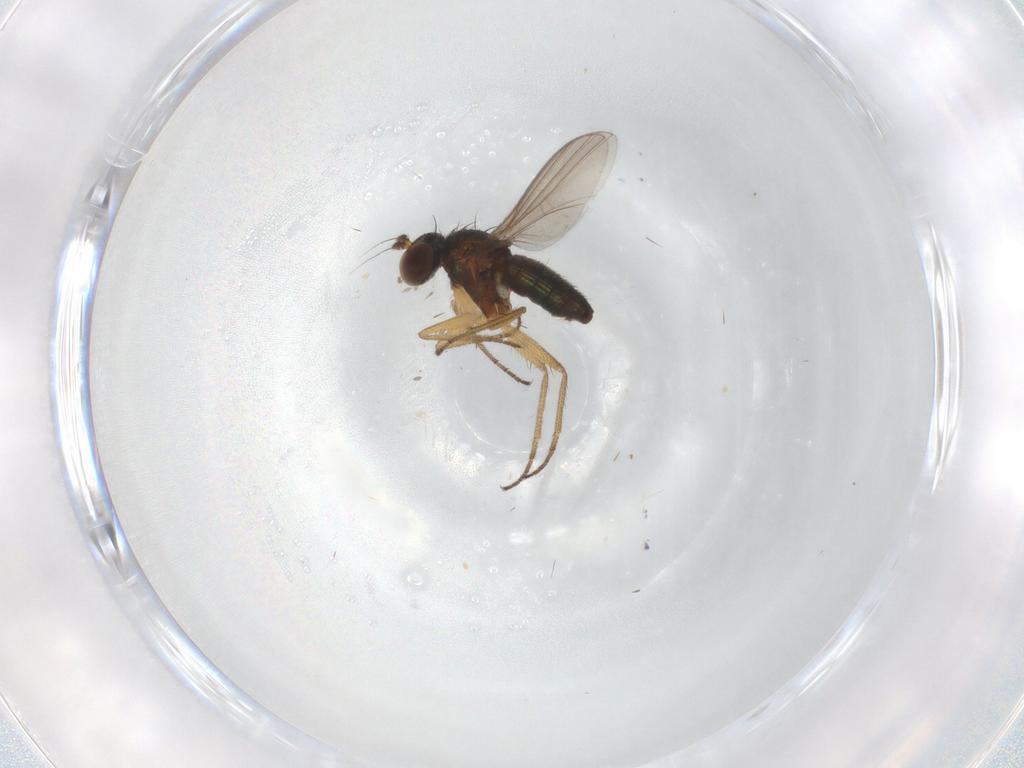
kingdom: Animalia
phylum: Arthropoda
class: Insecta
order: Diptera
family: Ceratopogonidae
